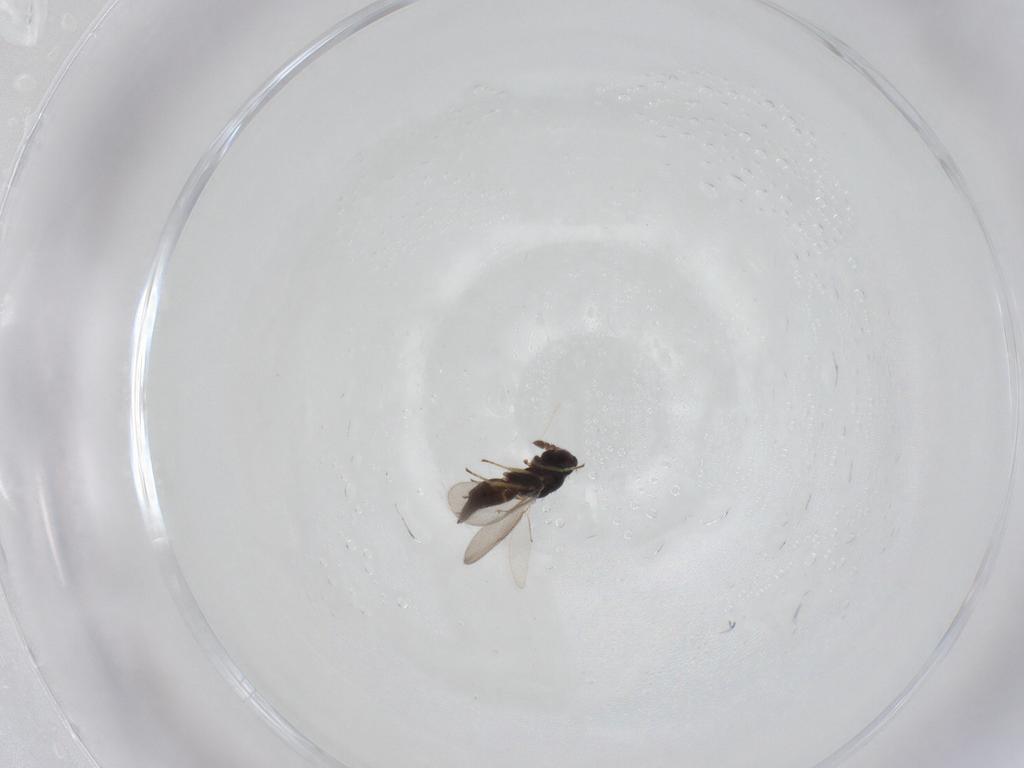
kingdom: Animalia
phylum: Arthropoda
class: Insecta
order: Hymenoptera
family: Eulophidae
